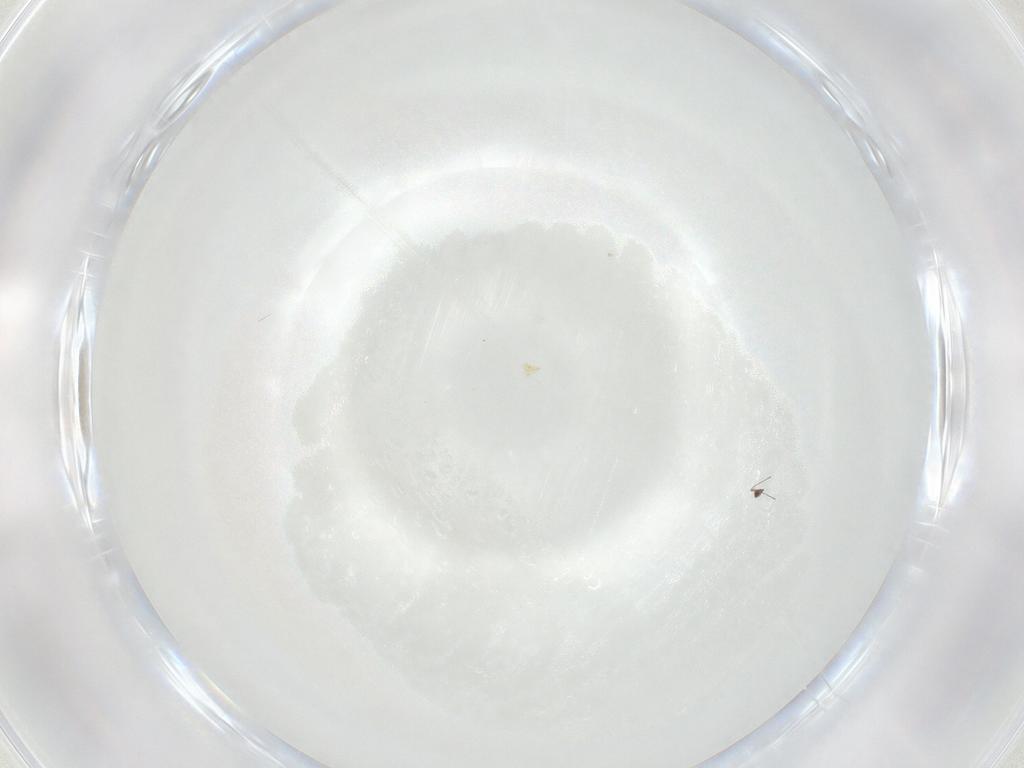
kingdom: Animalia
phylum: Arthropoda
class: Insecta
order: Hymenoptera
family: Mymaridae
